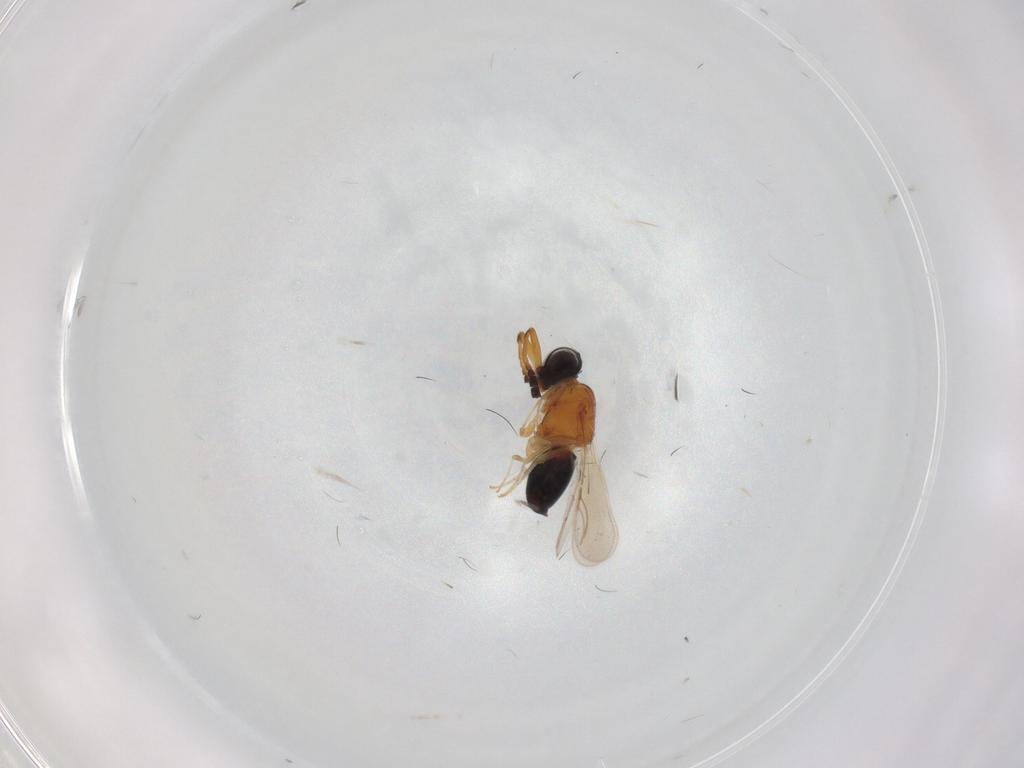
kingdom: Animalia
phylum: Arthropoda
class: Insecta
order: Hymenoptera
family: Ceraphronidae
